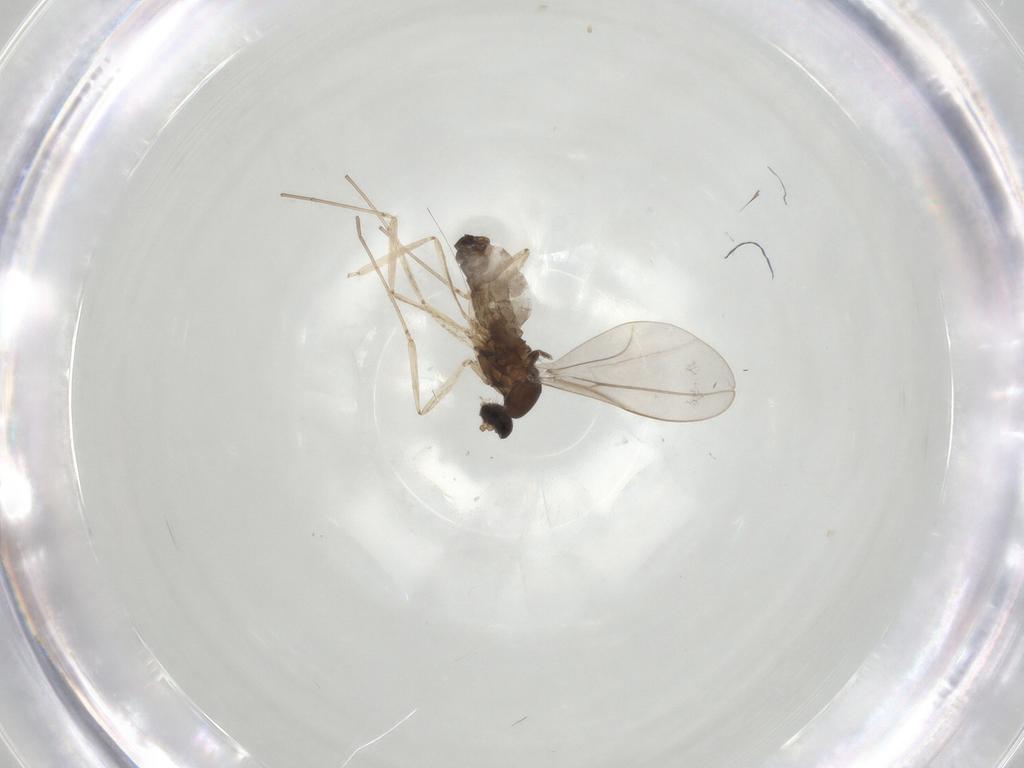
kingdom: Animalia
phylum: Arthropoda
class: Insecta
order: Diptera
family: Cecidomyiidae
